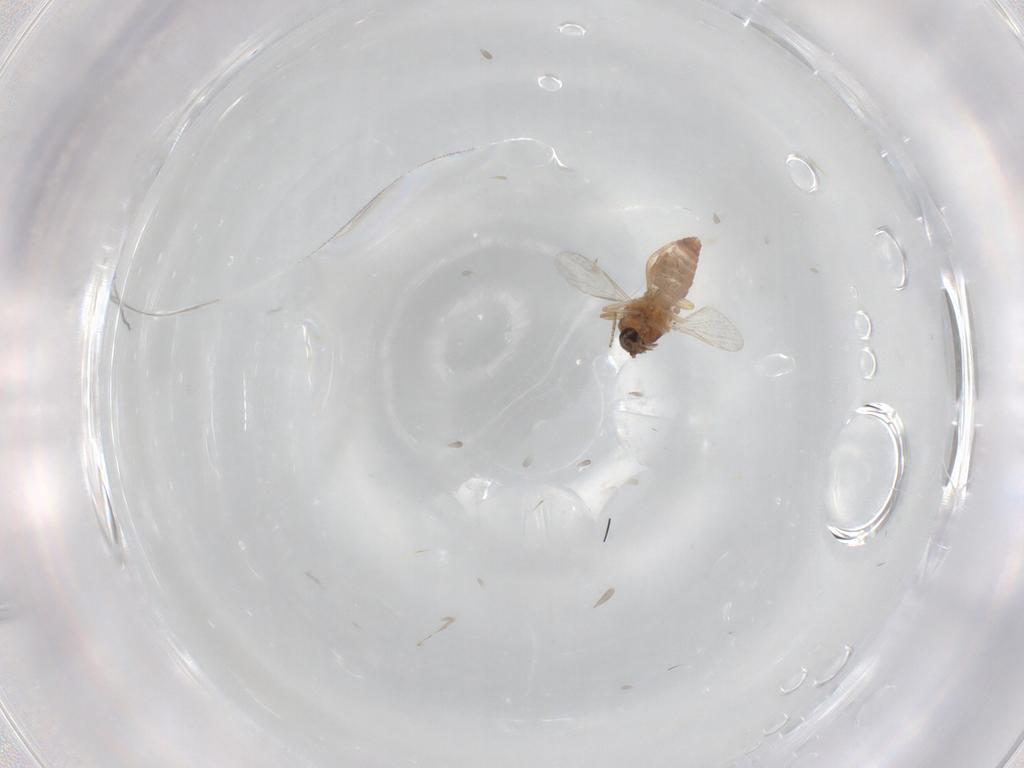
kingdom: Animalia
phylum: Arthropoda
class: Insecta
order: Diptera
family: Ceratopogonidae
